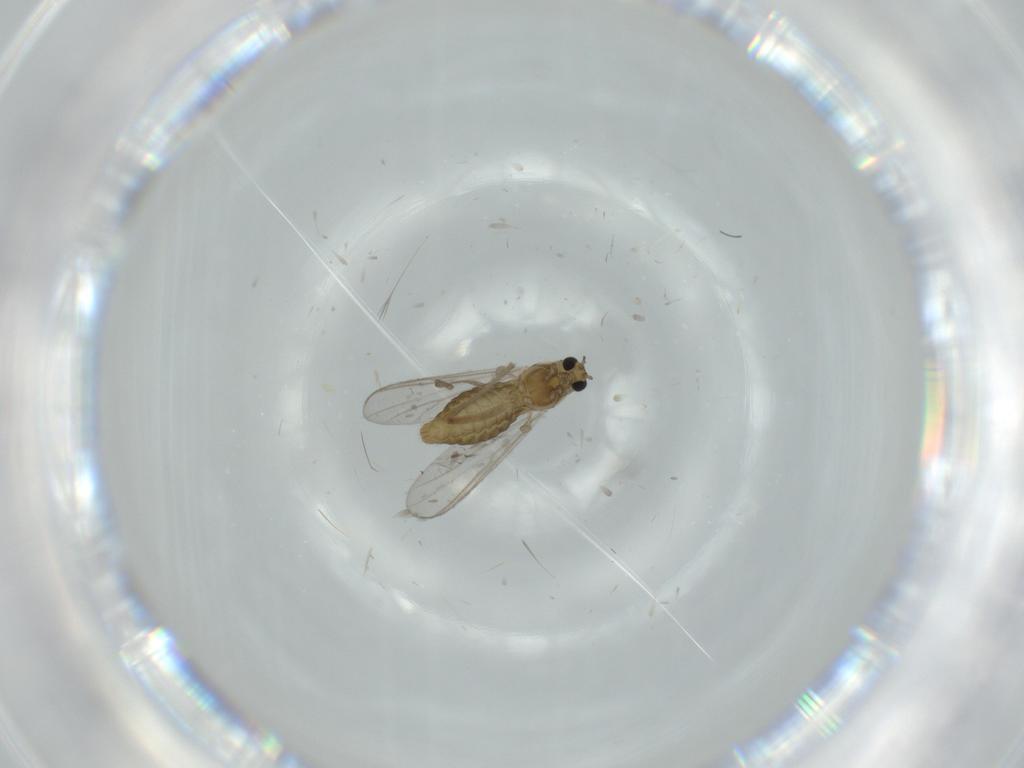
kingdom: Animalia
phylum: Arthropoda
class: Insecta
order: Diptera
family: Chironomidae
